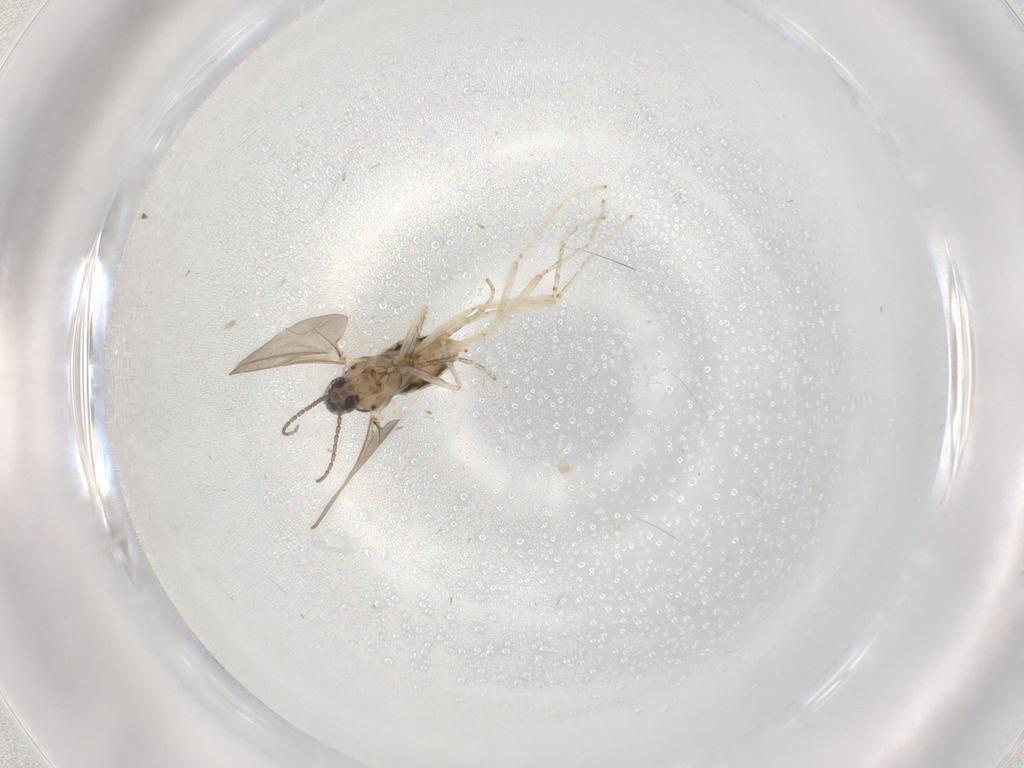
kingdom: Animalia
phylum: Arthropoda
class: Insecta
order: Diptera
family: Cecidomyiidae
